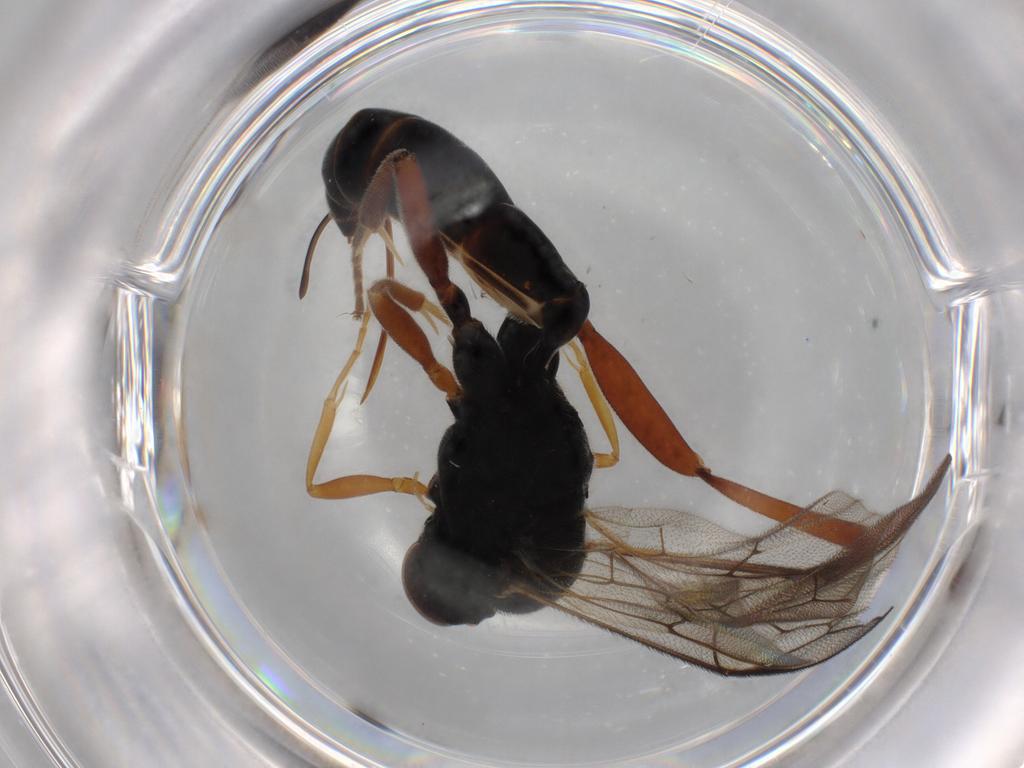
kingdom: Animalia
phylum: Arthropoda
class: Insecta
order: Hymenoptera
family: Ichneumonidae
